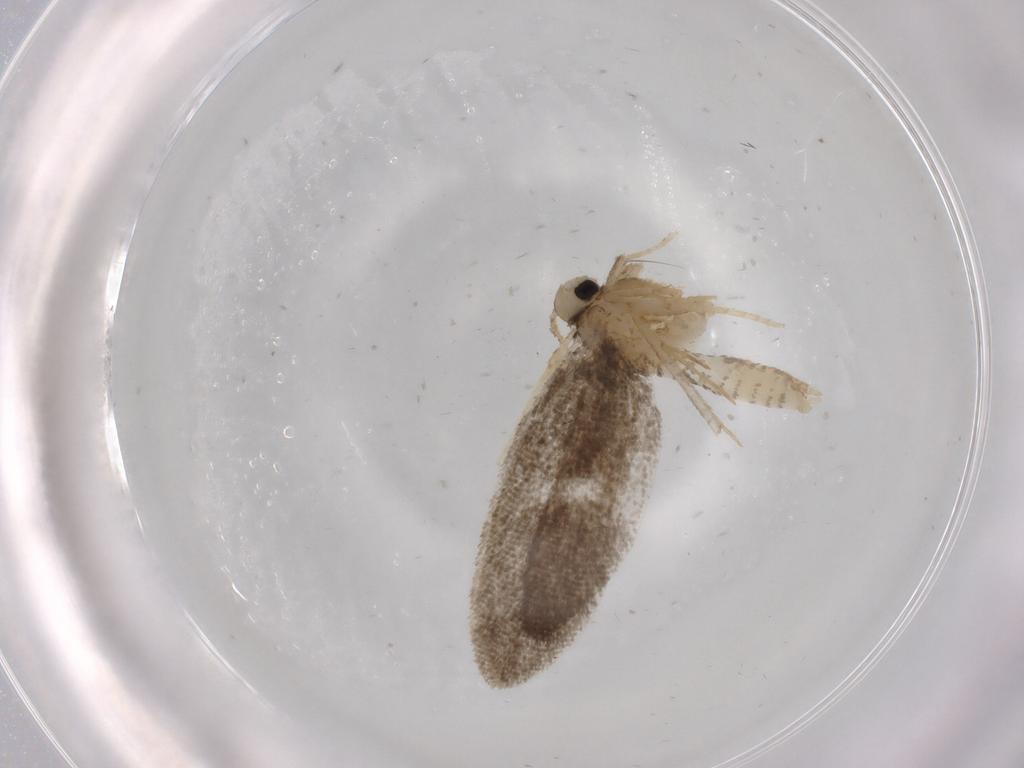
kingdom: Animalia
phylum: Arthropoda
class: Insecta
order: Lepidoptera
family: Psychidae
